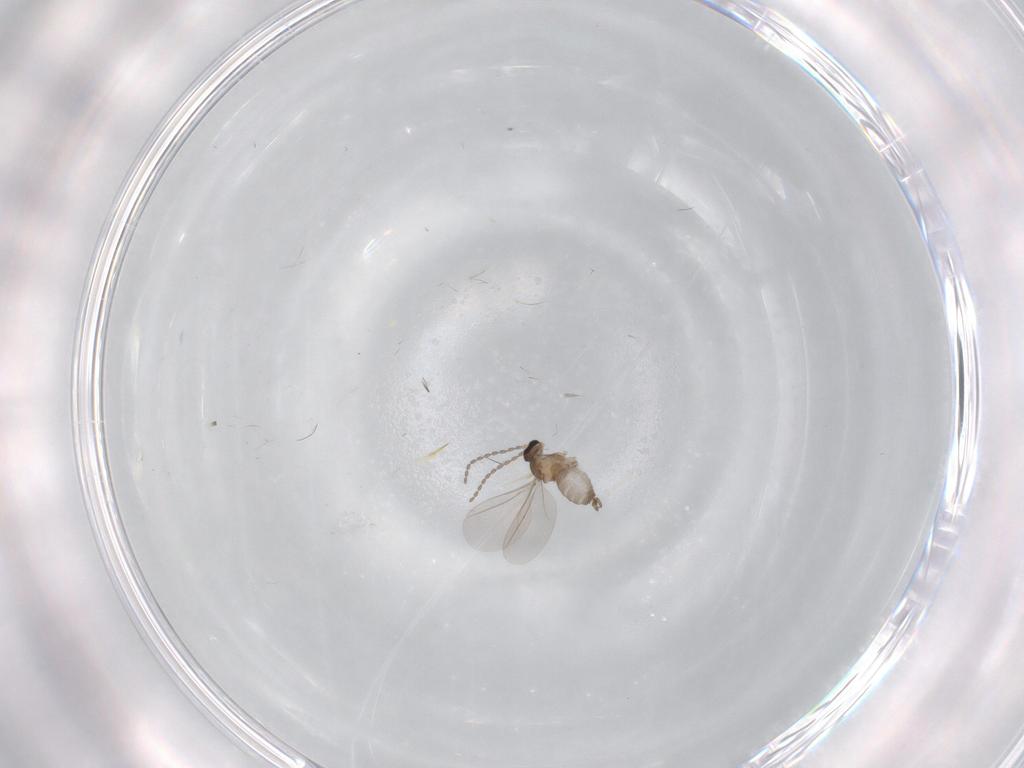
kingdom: Animalia
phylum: Arthropoda
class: Insecta
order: Diptera
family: Cecidomyiidae
